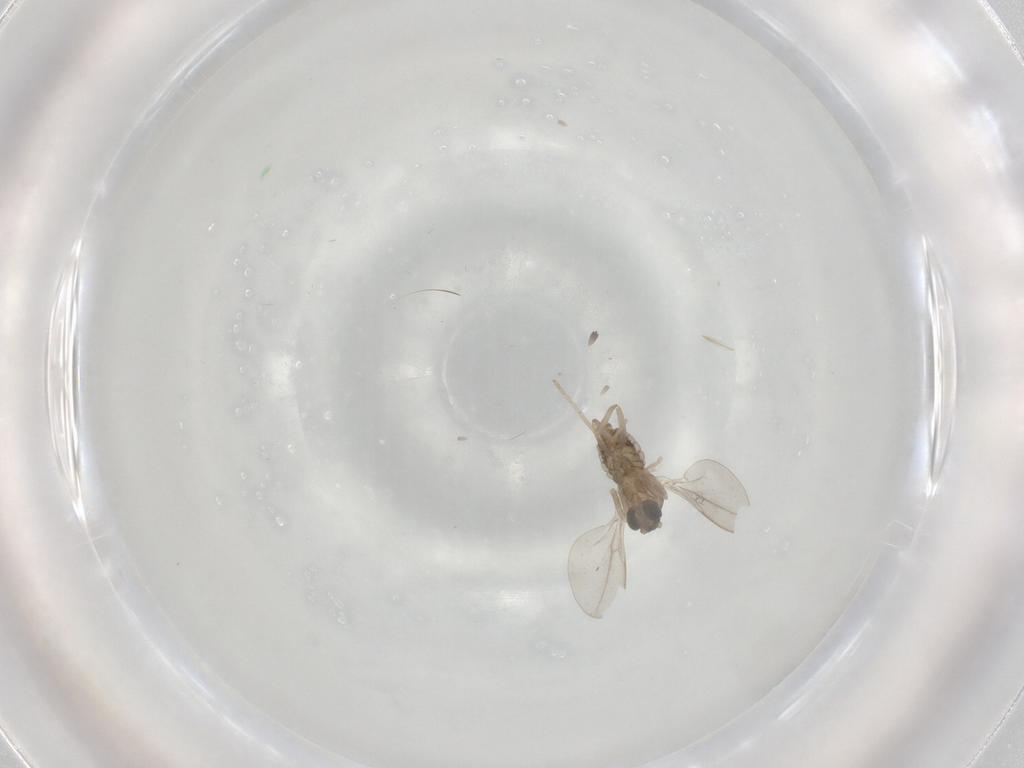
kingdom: Animalia
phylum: Arthropoda
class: Insecta
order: Diptera
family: Ceratopogonidae
